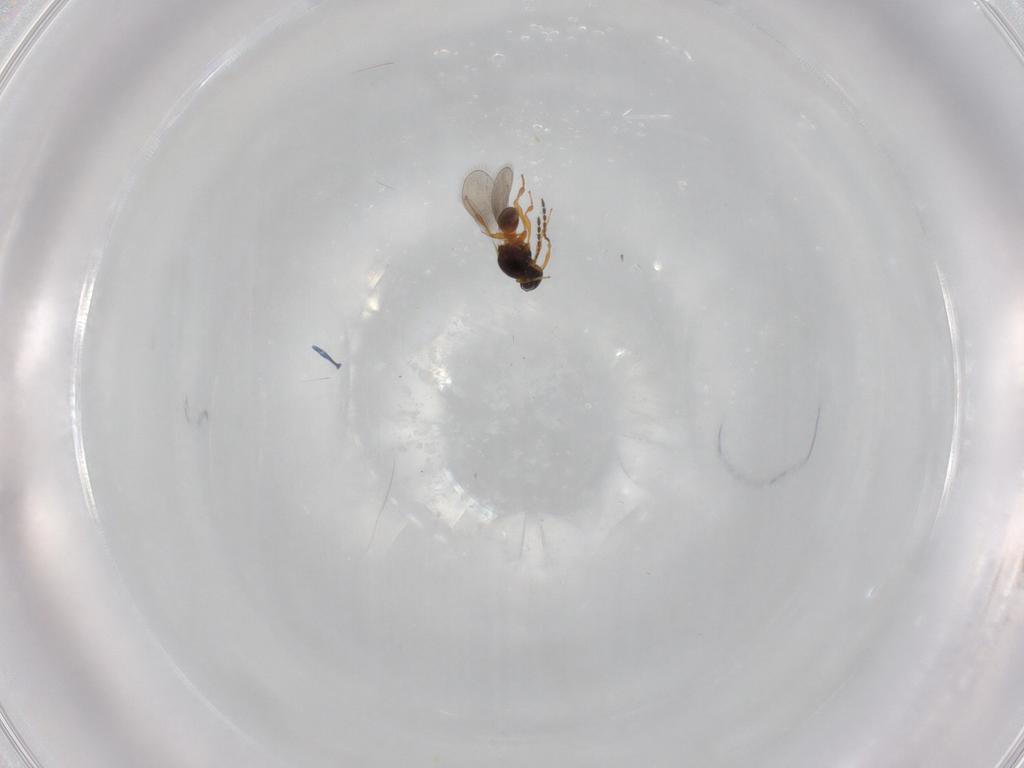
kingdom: Animalia
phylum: Arthropoda
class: Insecta
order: Hymenoptera
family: Platygastridae
